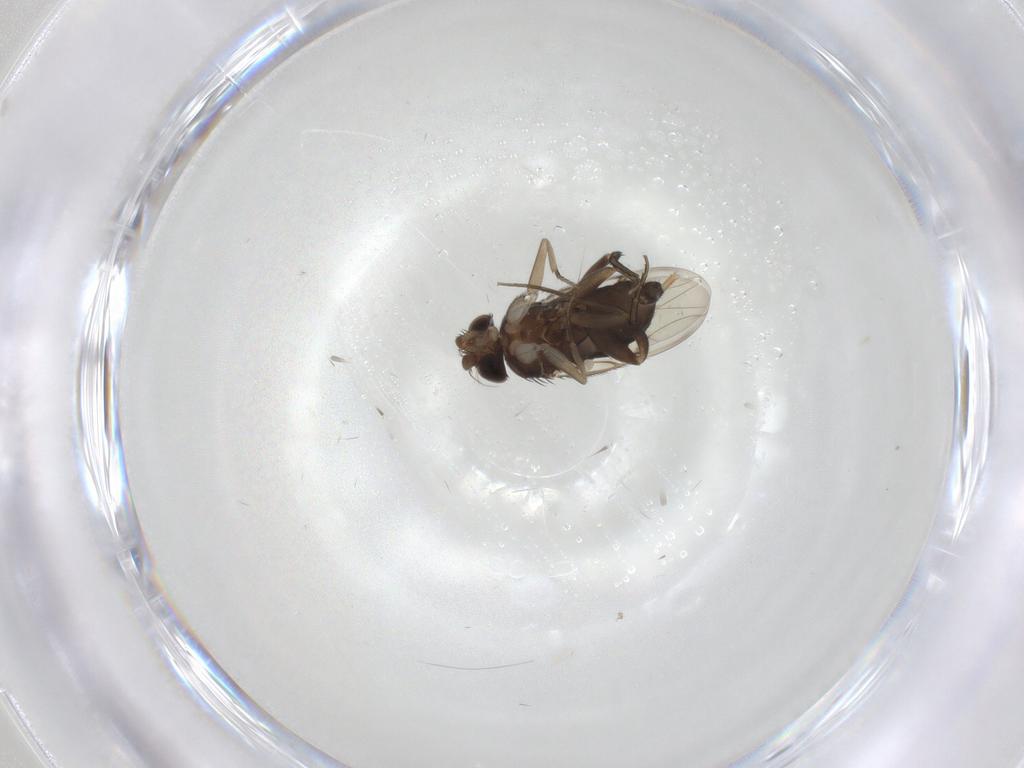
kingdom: Animalia
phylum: Arthropoda
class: Insecta
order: Diptera
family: Phoridae
